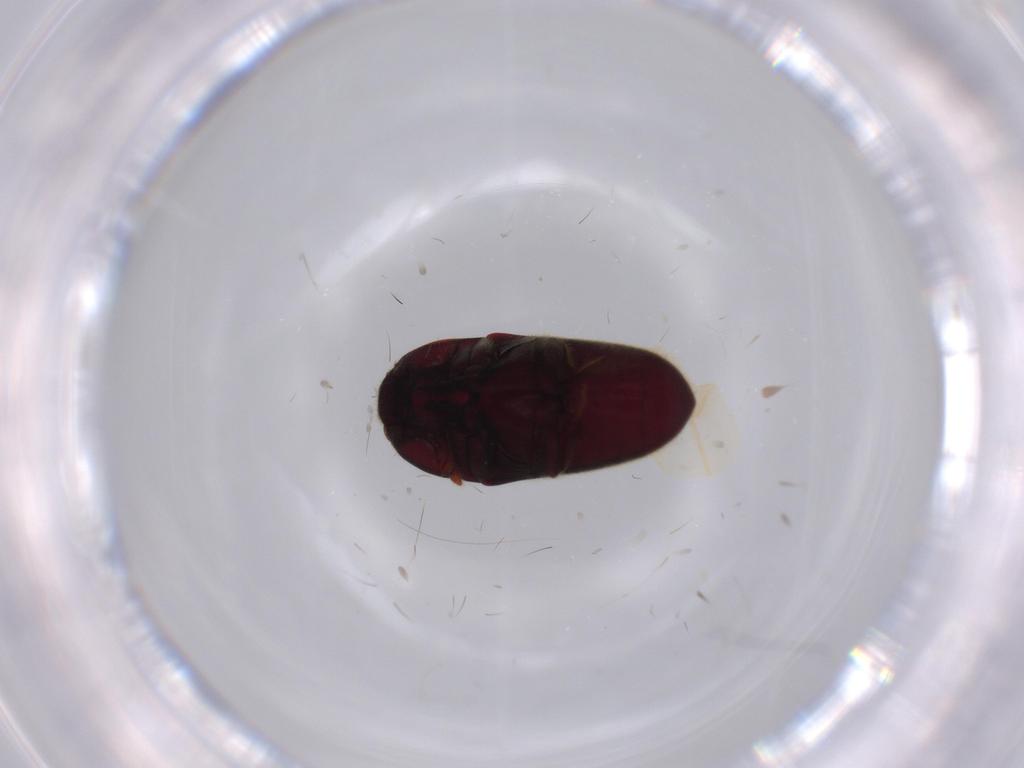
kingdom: Animalia
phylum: Arthropoda
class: Insecta
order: Coleoptera
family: Throscidae
